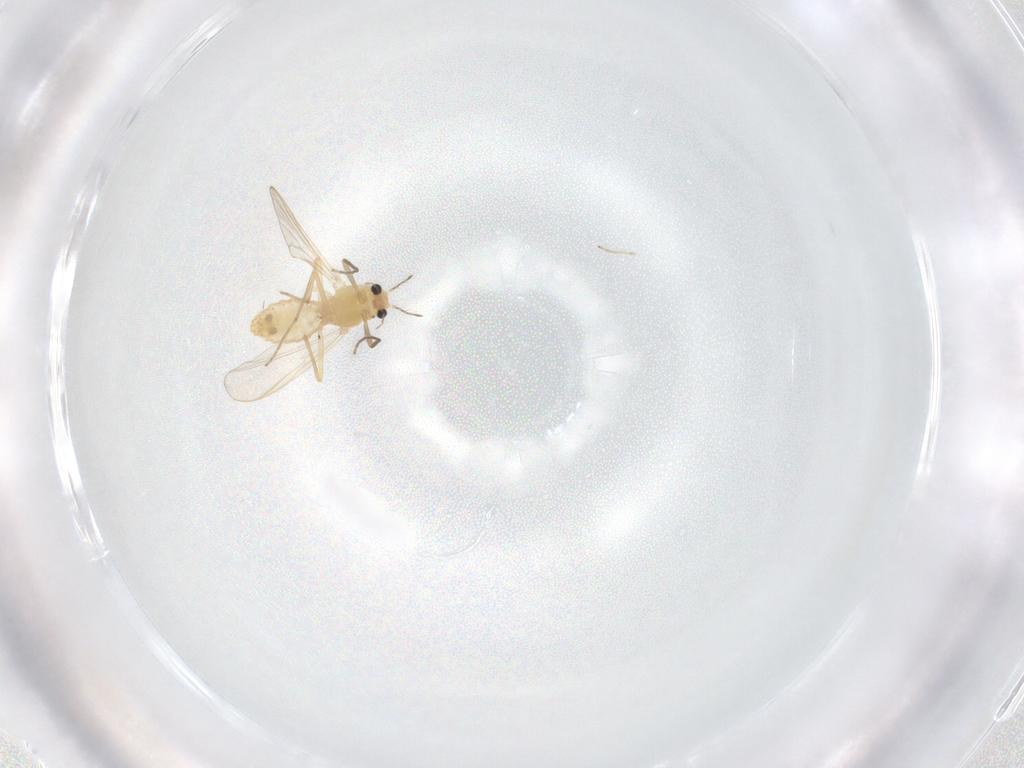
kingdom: Animalia
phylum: Arthropoda
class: Insecta
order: Diptera
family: Chironomidae
